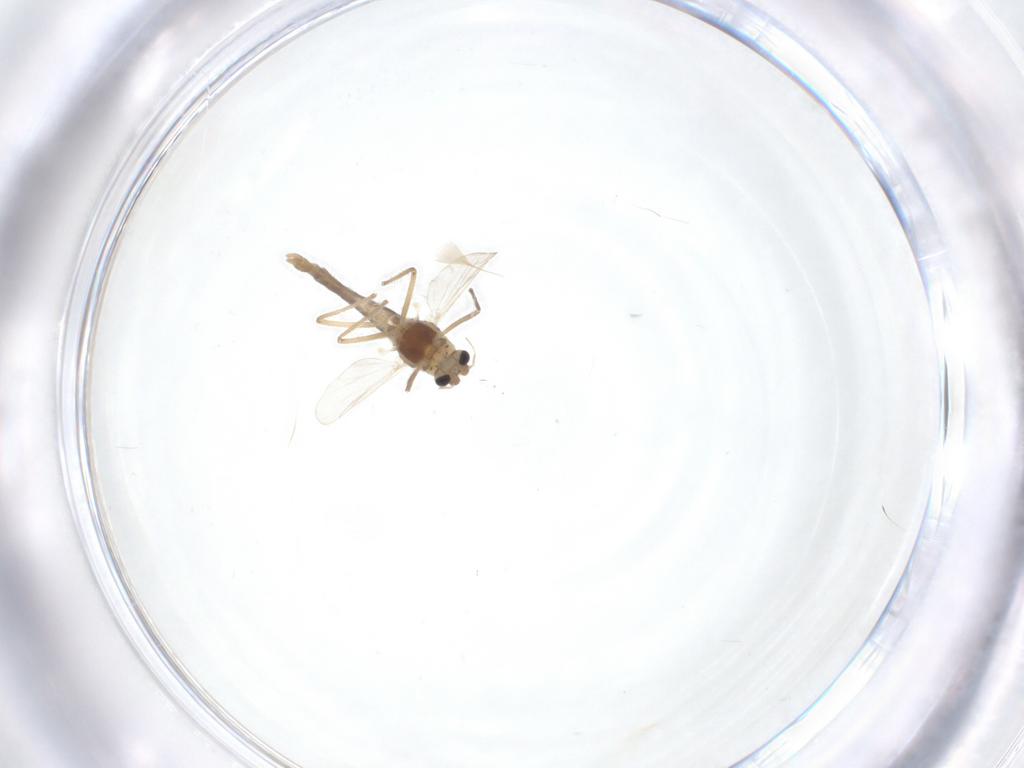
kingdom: Animalia
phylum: Arthropoda
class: Insecta
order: Diptera
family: Chironomidae
